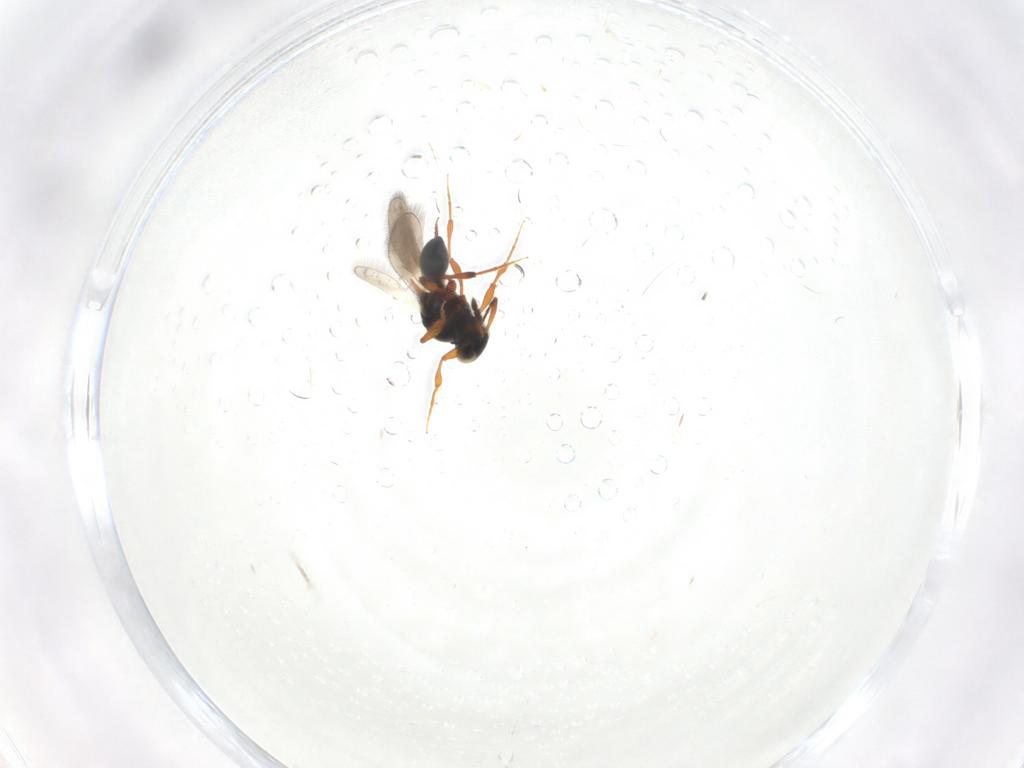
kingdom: Animalia
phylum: Arthropoda
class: Insecta
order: Hymenoptera
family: Platygastridae
